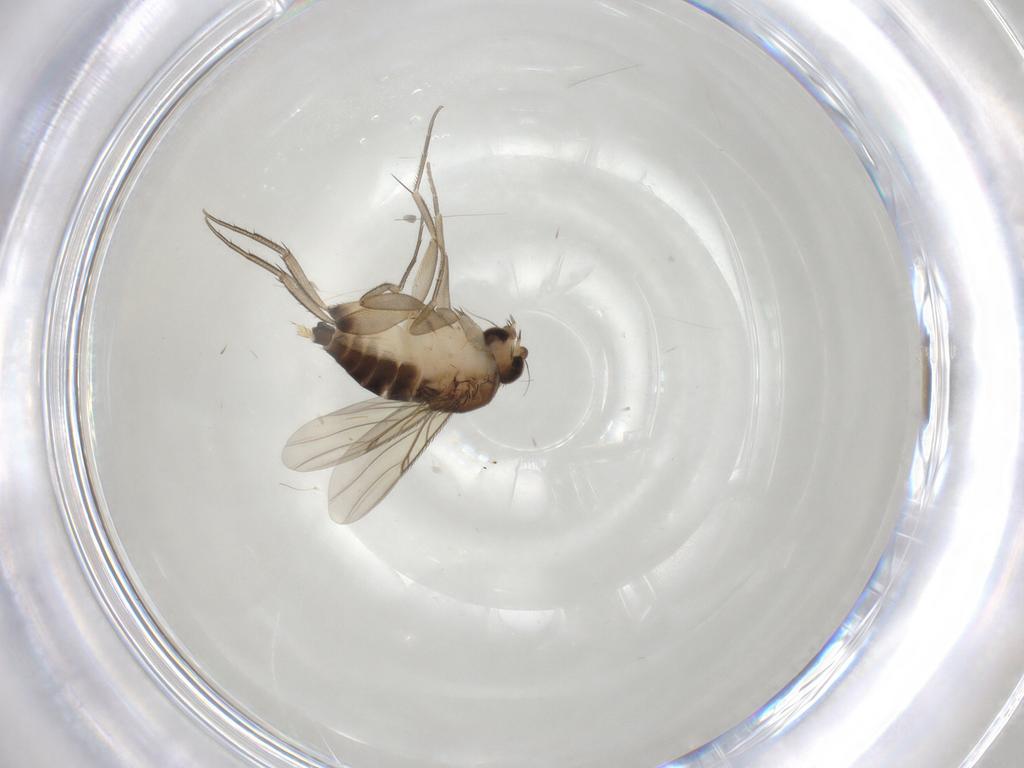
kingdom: Animalia
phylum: Arthropoda
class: Insecta
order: Diptera
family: Phoridae
